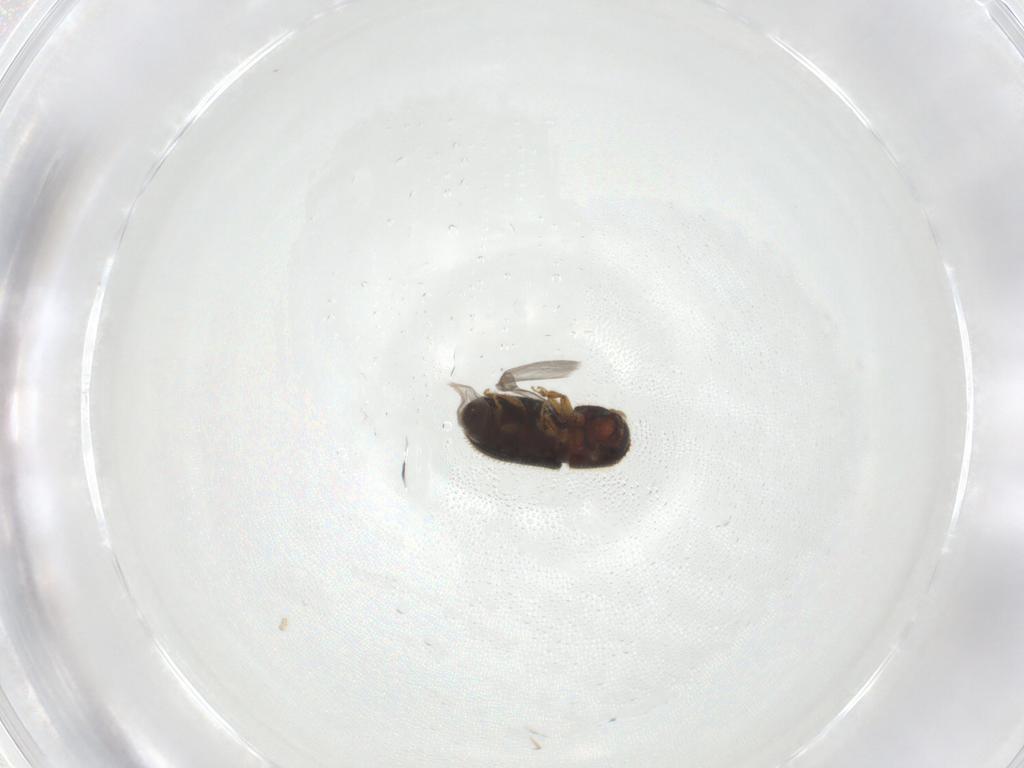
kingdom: Animalia
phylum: Arthropoda
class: Insecta
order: Coleoptera
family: Curculionidae
